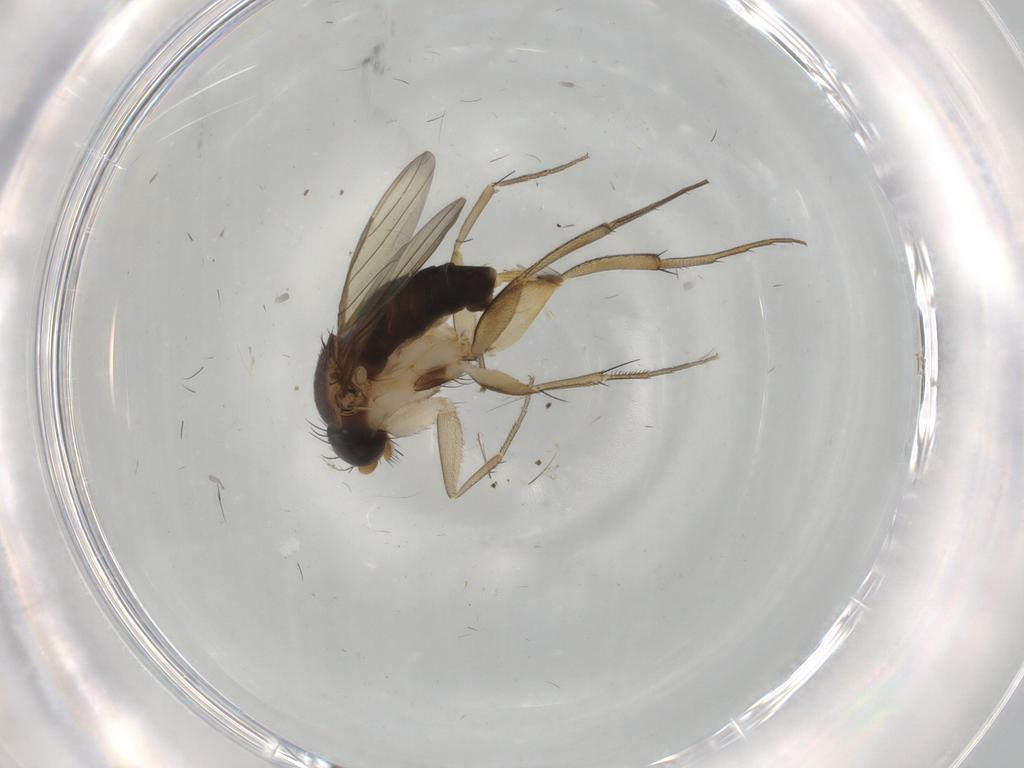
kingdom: Animalia
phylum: Arthropoda
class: Insecta
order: Diptera
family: Phoridae
